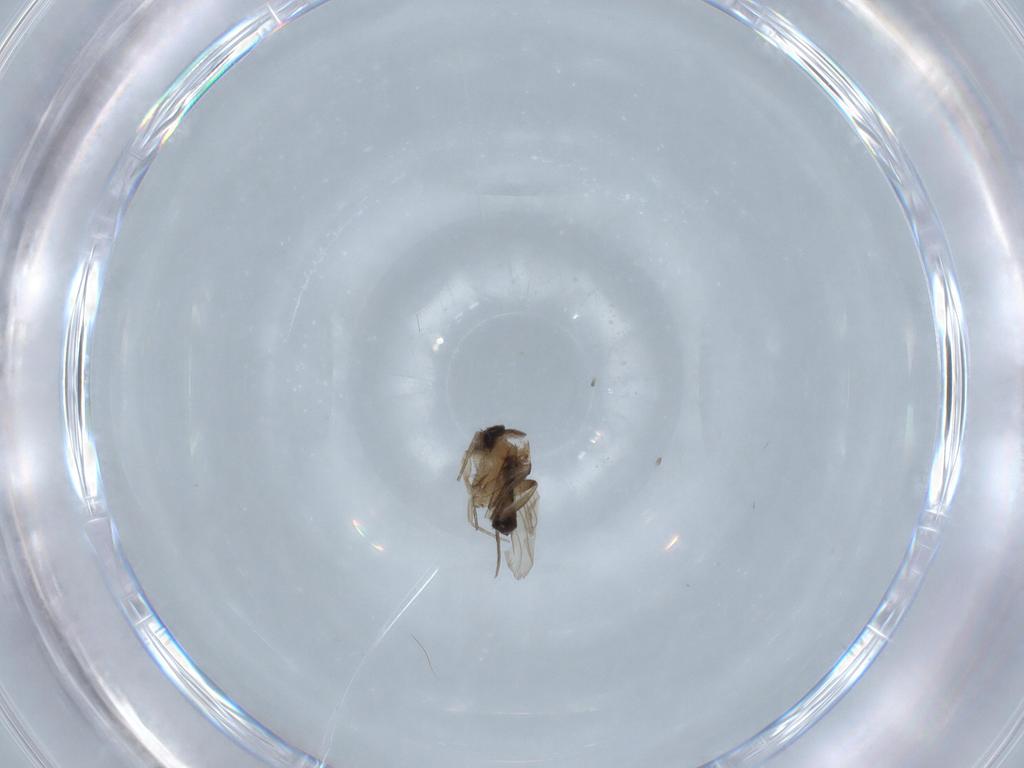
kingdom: Animalia
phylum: Arthropoda
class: Insecta
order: Diptera
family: Phoridae
